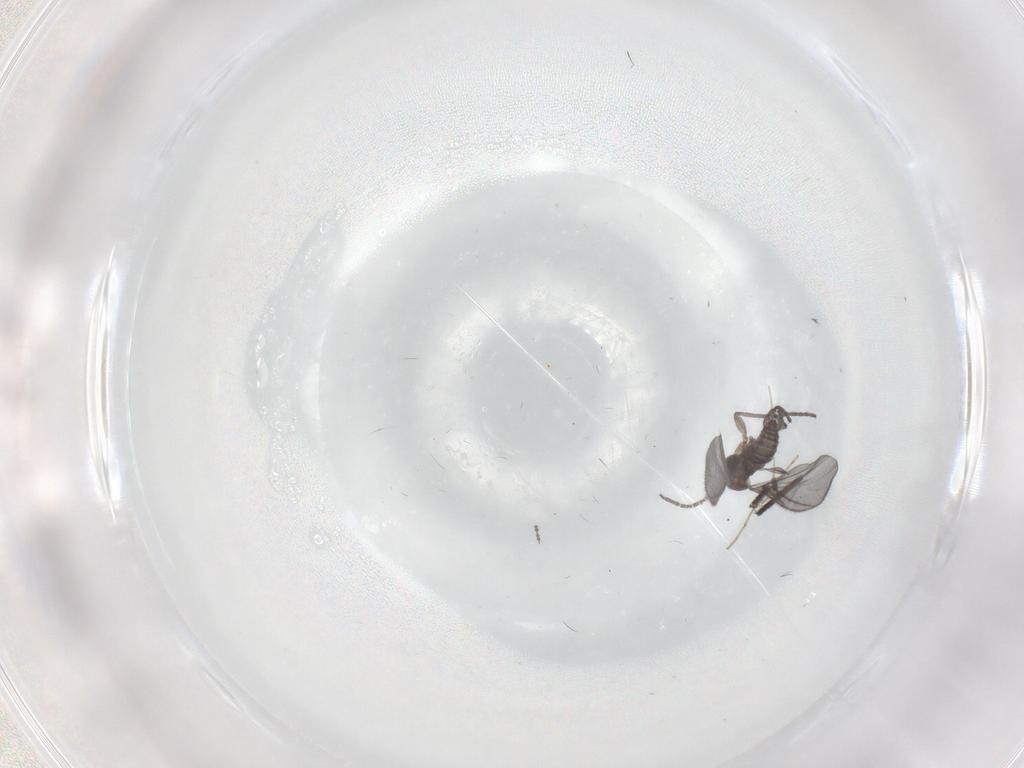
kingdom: Animalia
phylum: Arthropoda
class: Insecta
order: Diptera
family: Sciaridae
